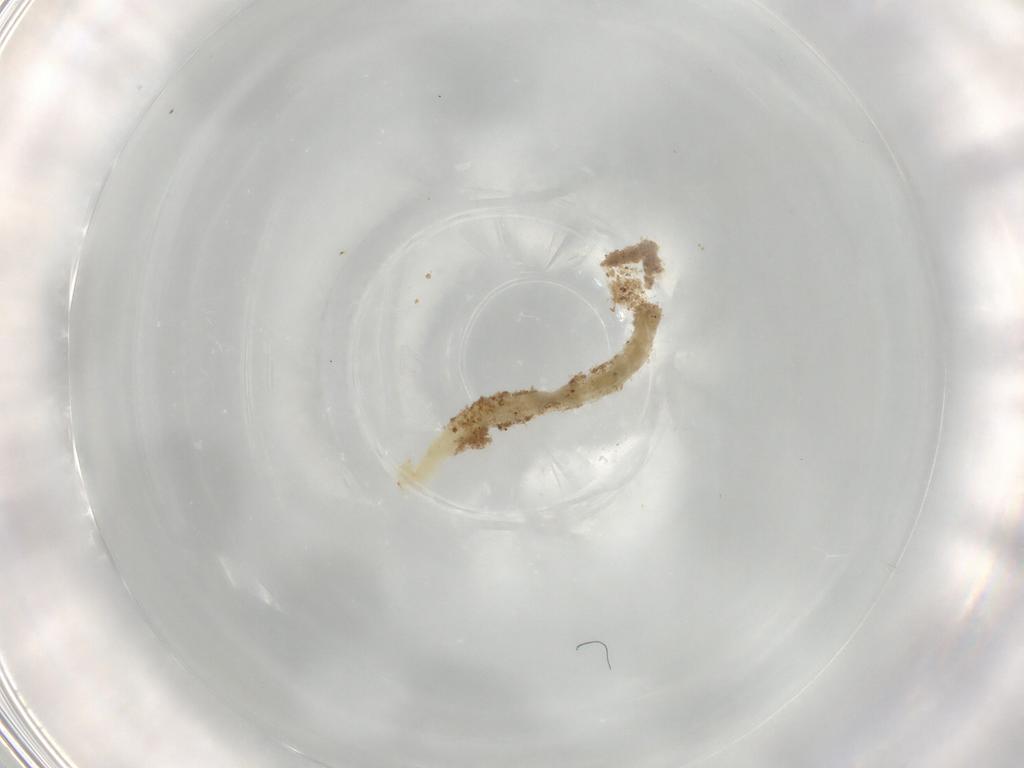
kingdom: Animalia
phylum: Arthropoda
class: Insecta
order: Diptera
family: Chironomidae
